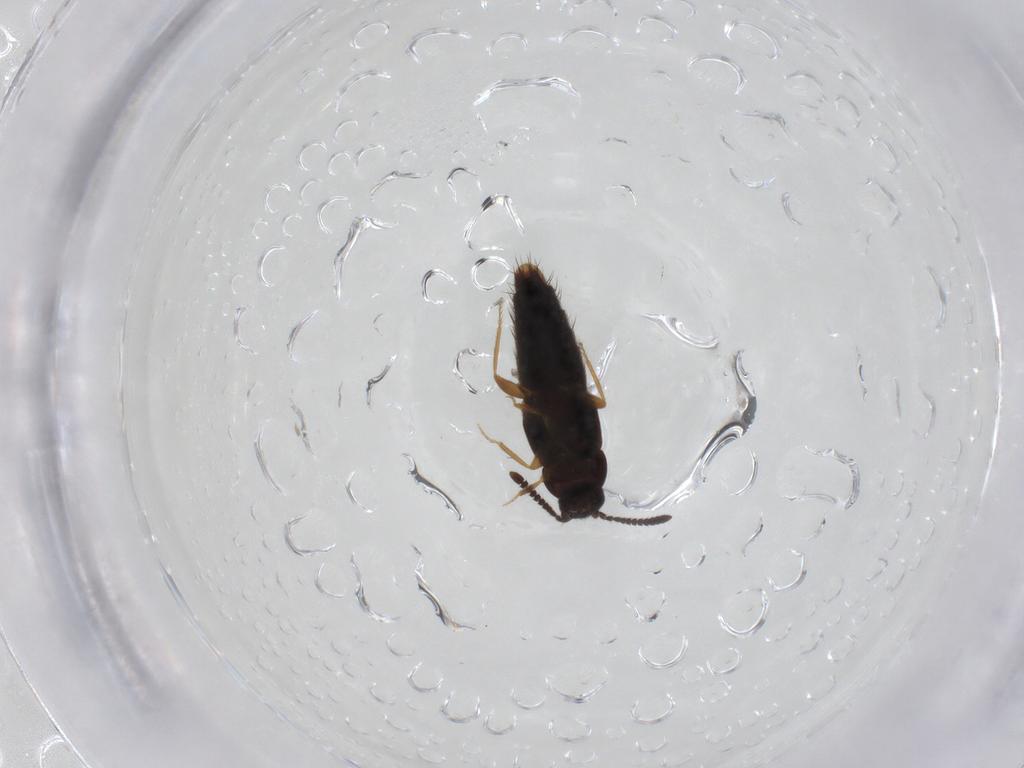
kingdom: Animalia
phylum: Arthropoda
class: Insecta
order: Coleoptera
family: Staphylinidae
